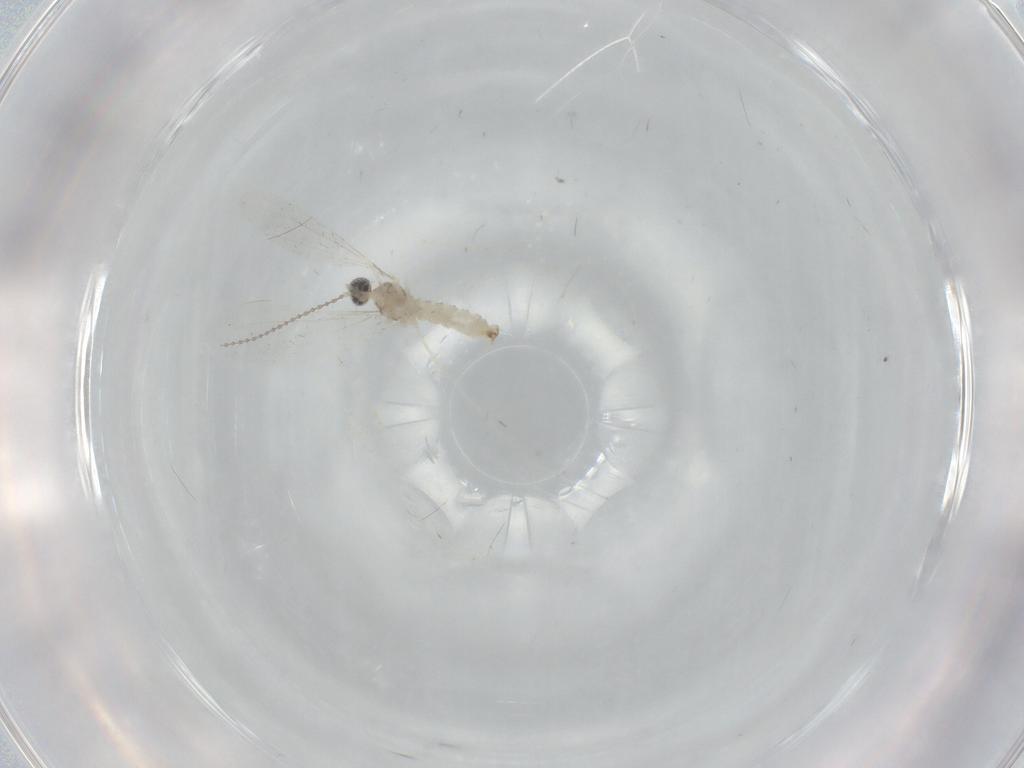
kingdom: Animalia
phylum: Arthropoda
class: Insecta
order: Diptera
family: Cecidomyiidae
